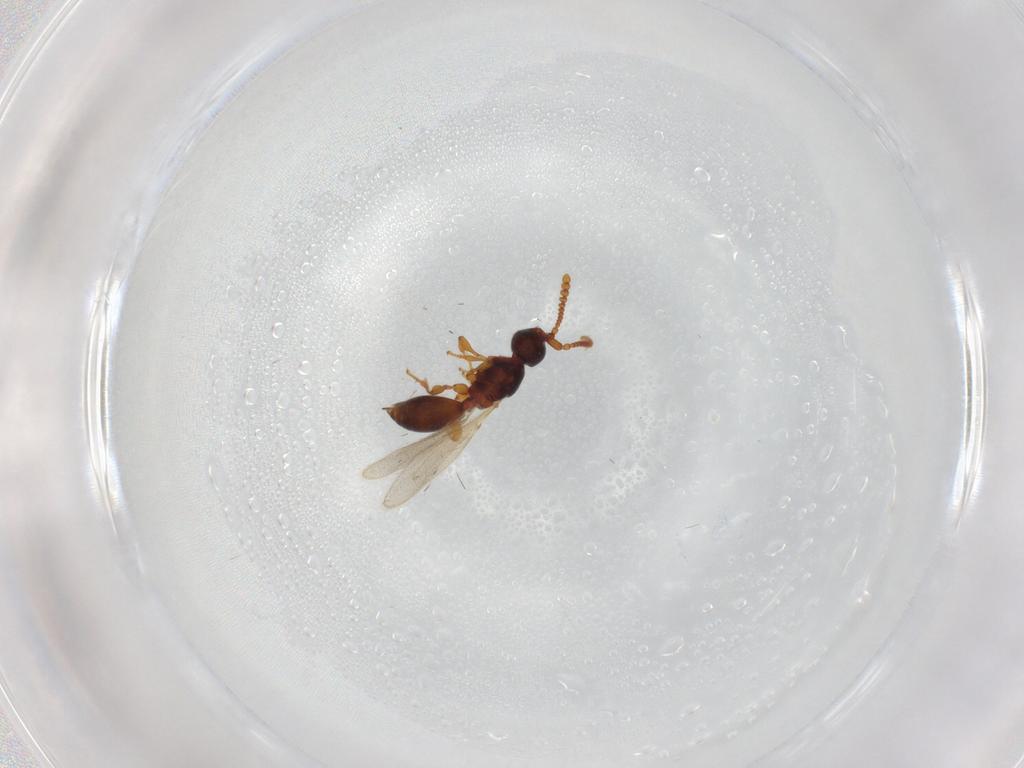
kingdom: Animalia
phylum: Arthropoda
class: Insecta
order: Hymenoptera
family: Diapriidae
